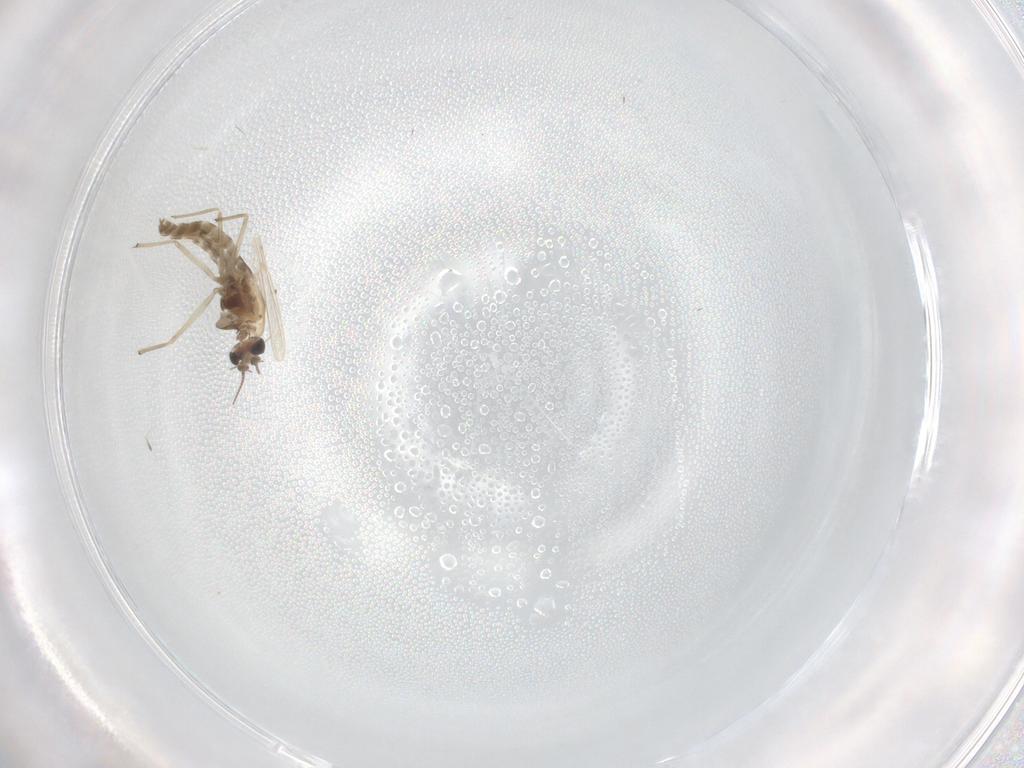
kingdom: Animalia
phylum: Arthropoda
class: Insecta
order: Diptera
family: Chironomidae
